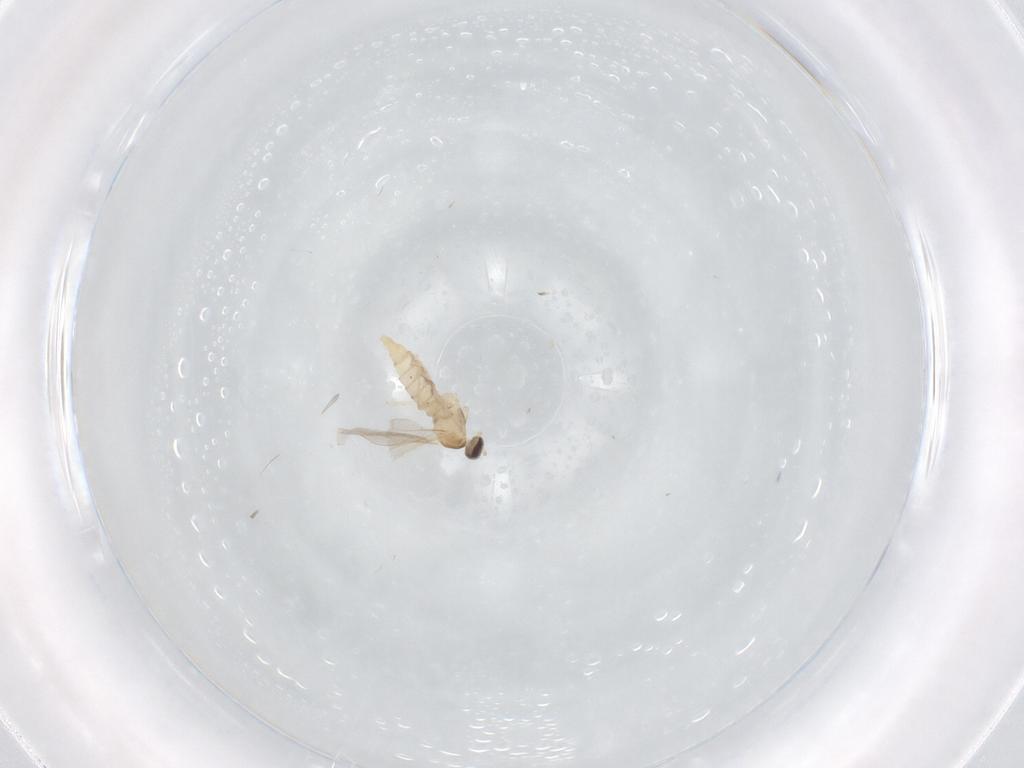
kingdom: Animalia
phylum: Arthropoda
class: Insecta
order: Diptera
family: Cecidomyiidae
